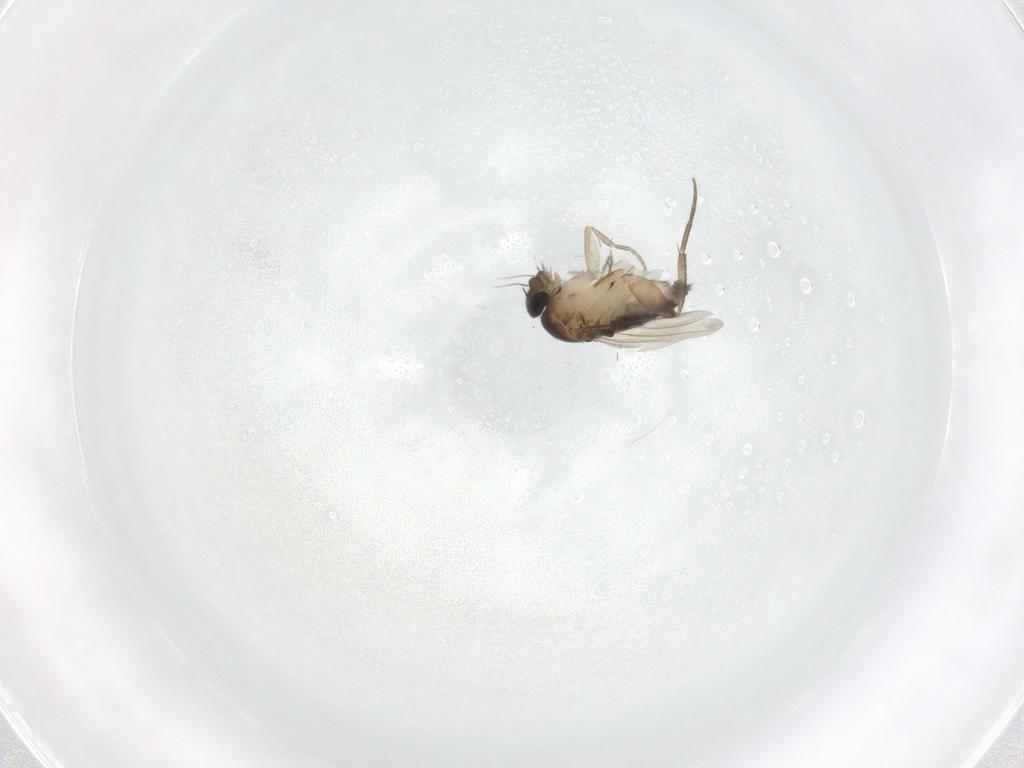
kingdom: Animalia
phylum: Arthropoda
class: Insecta
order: Diptera
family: Phoridae
